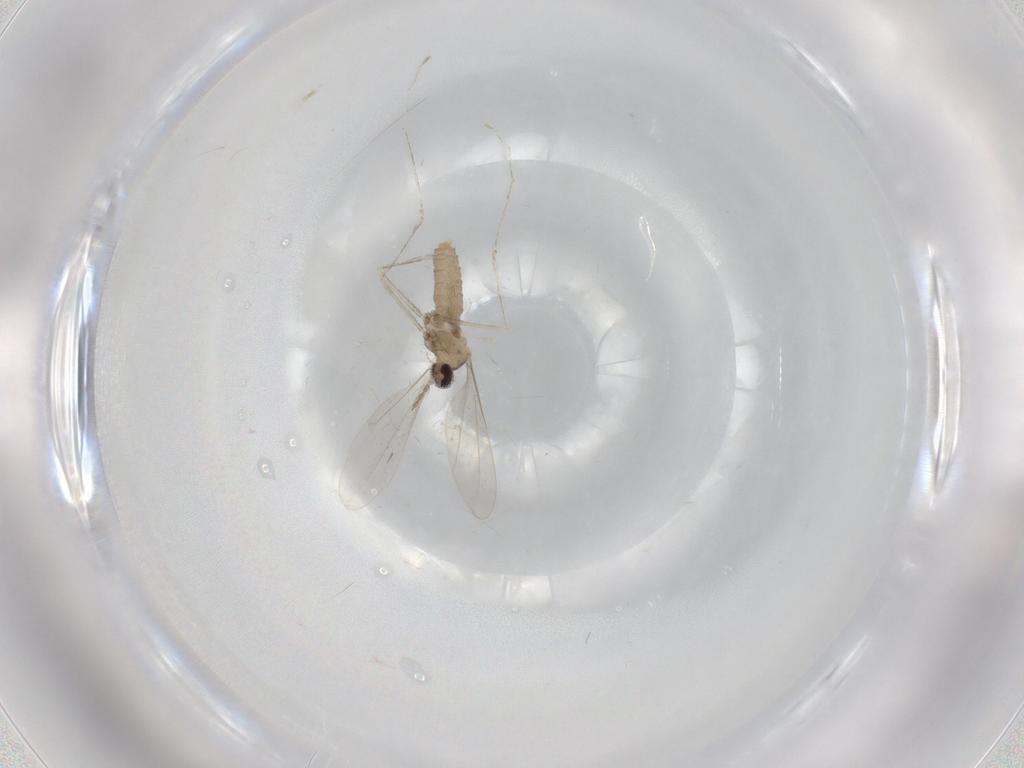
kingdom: Animalia
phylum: Arthropoda
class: Insecta
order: Diptera
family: Cecidomyiidae
